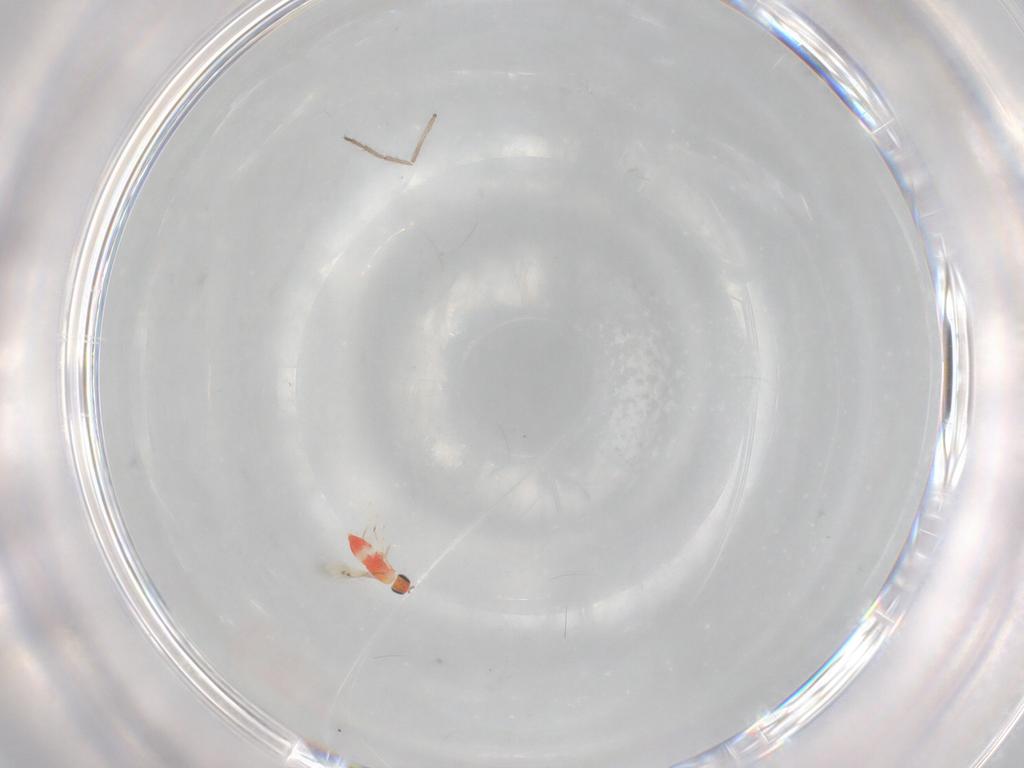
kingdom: Animalia
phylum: Arthropoda
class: Insecta
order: Hymenoptera
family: Trichogrammatidae
